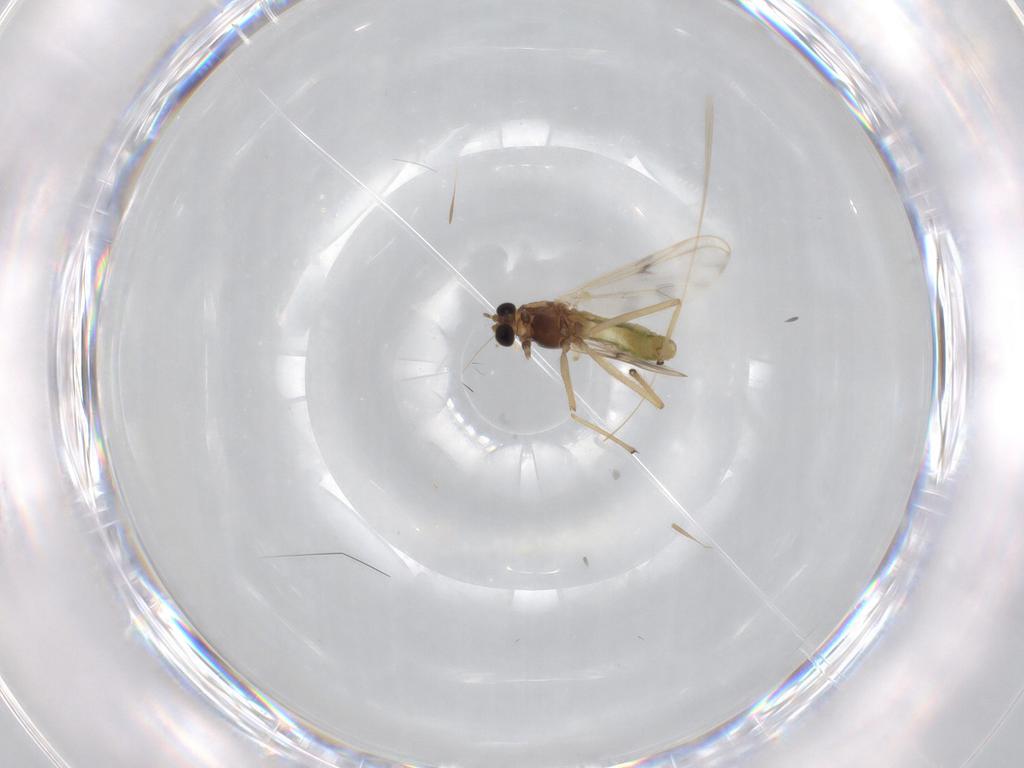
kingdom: Animalia
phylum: Arthropoda
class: Insecta
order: Diptera
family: Chironomidae
